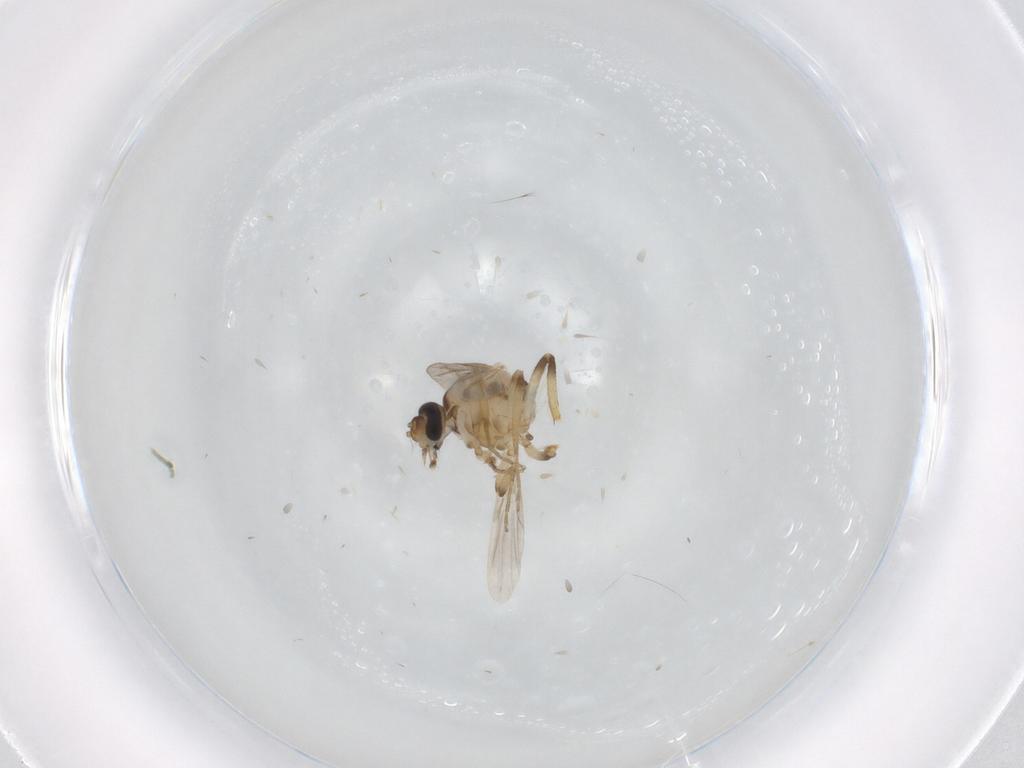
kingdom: Animalia
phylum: Arthropoda
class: Insecta
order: Diptera
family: Ceratopogonidae
